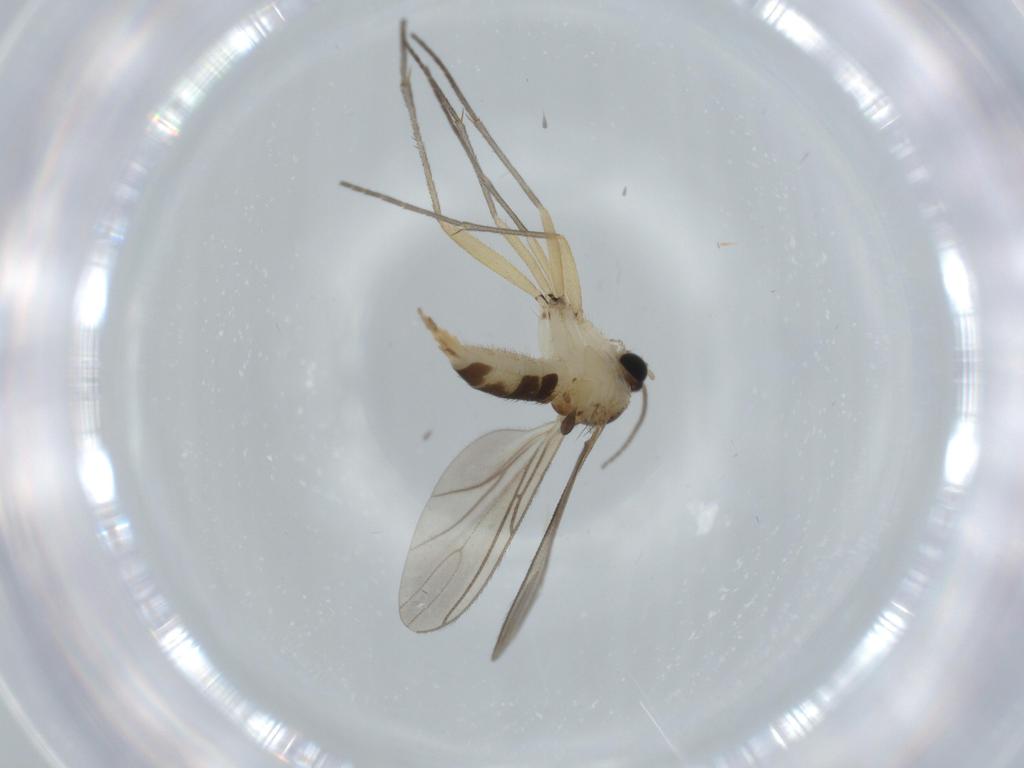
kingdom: Animalia
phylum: Arthropoda
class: Insecta
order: Diptera
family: Sciaridae
